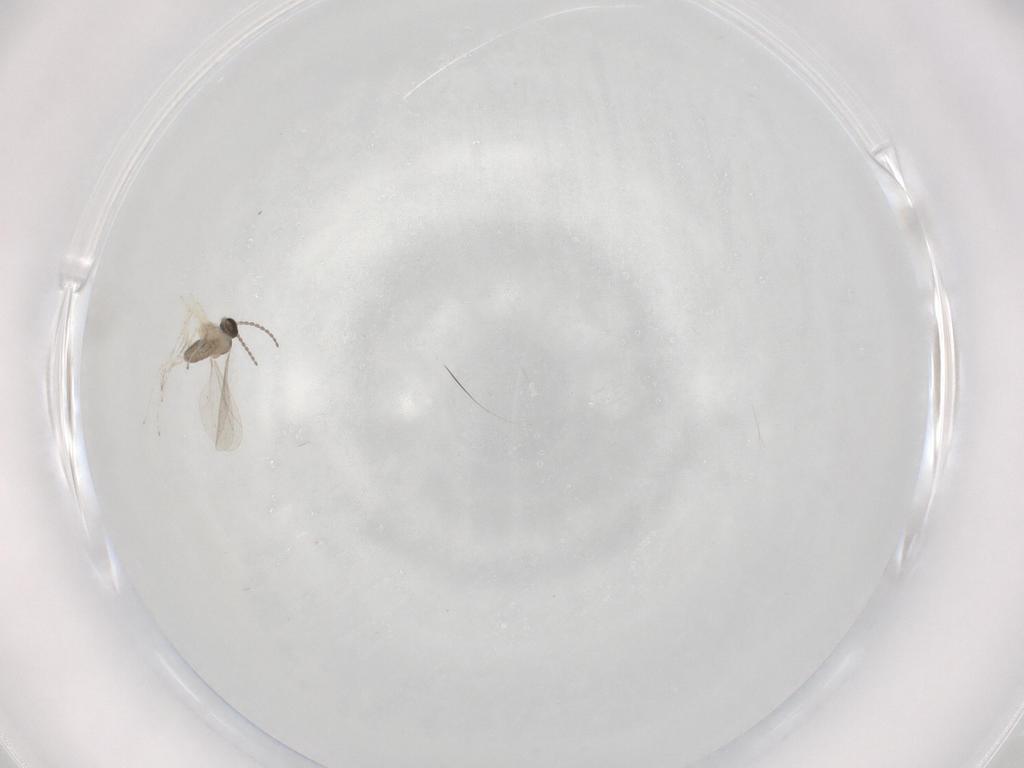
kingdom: Animalia
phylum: Arthropoda
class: Insecta
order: Diptera
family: Cecidomyiidae
